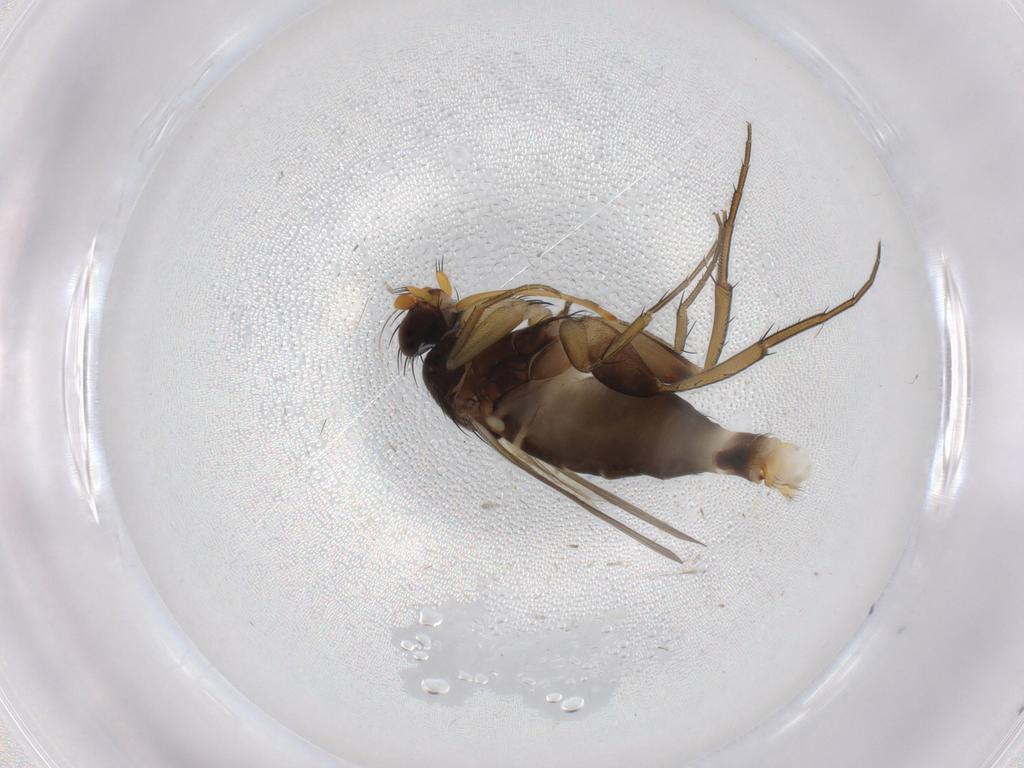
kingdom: Animalia
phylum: Arthropoda
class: Insecta
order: Diptera
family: Phoridae
